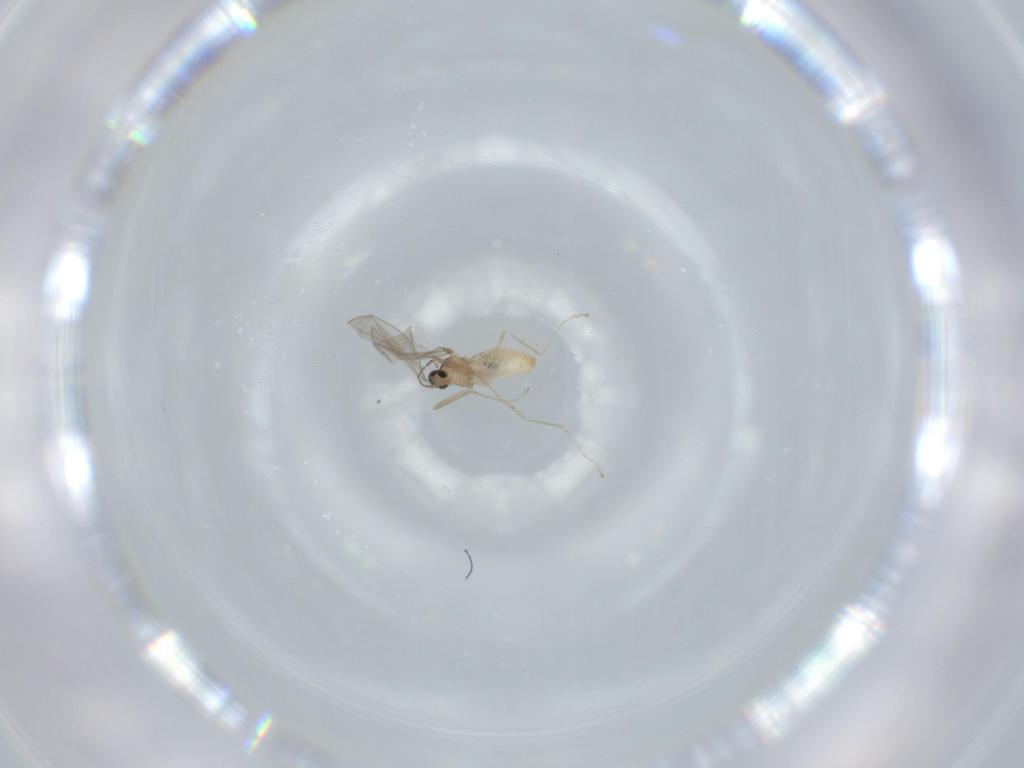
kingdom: Animalia
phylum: Arthropoda
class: Insecta
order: Diptera
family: Cecidomyiidae
